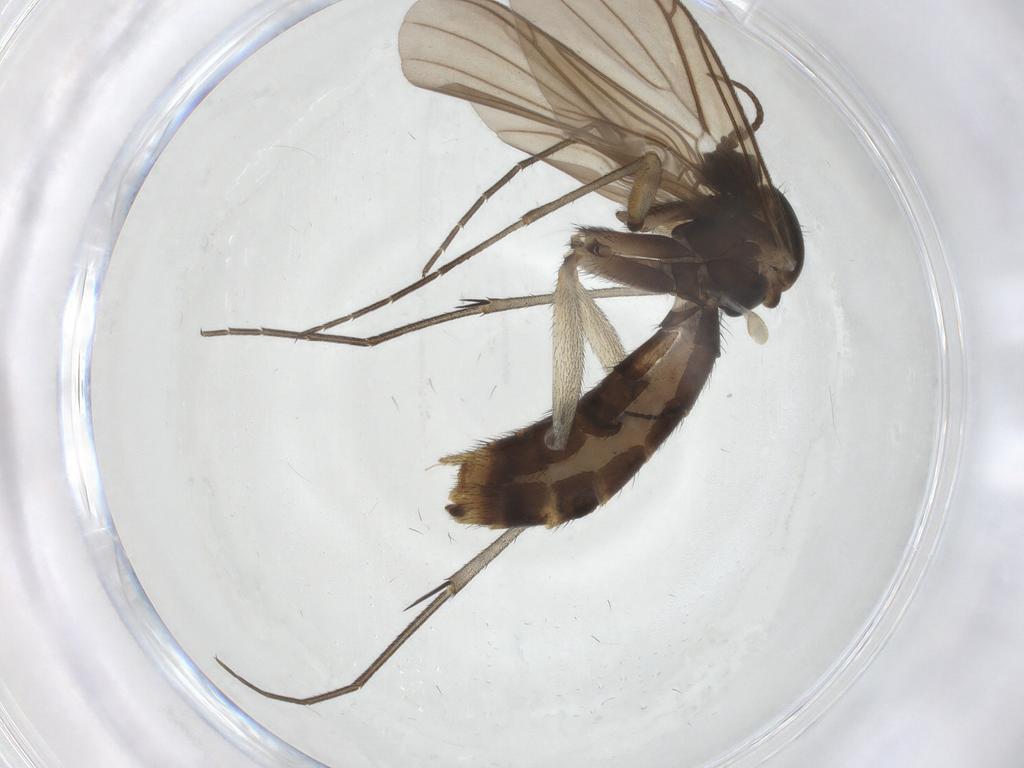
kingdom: Animalia
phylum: Arthropoda
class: Insecta
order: Diptera
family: Keroplatidae
